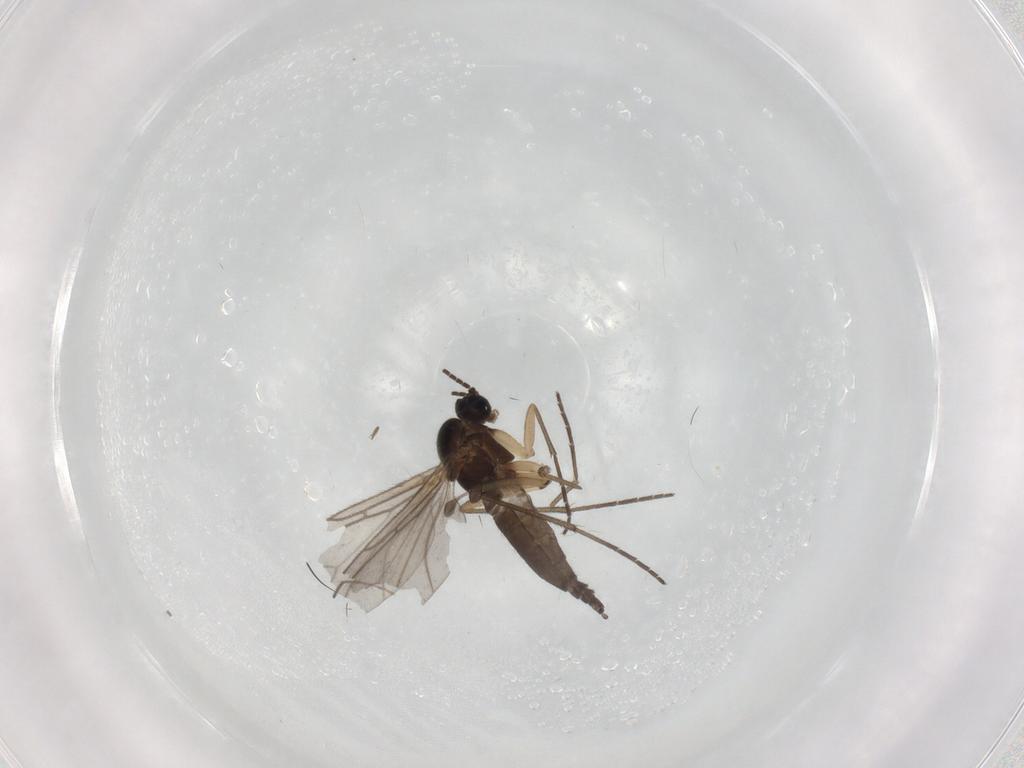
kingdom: Animalia
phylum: Arthropoda
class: Insecta
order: Diptera
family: Sciaridae
